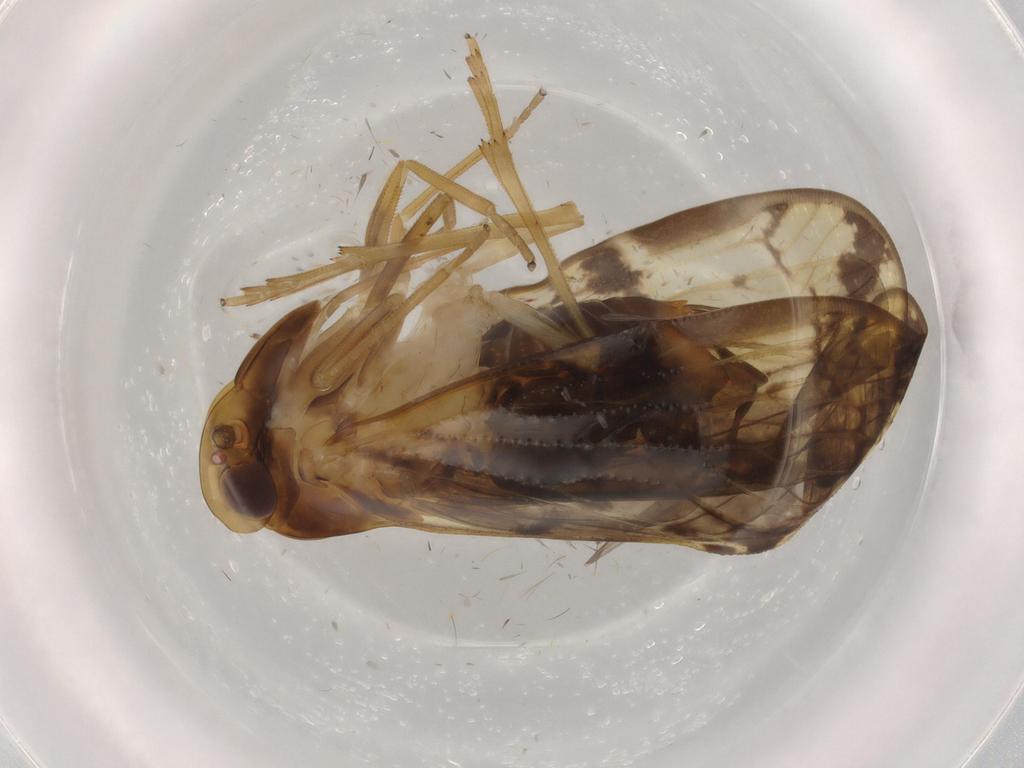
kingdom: Animalia
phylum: Arthropoda
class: Insecta
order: Hemiptera
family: Cixiidae
